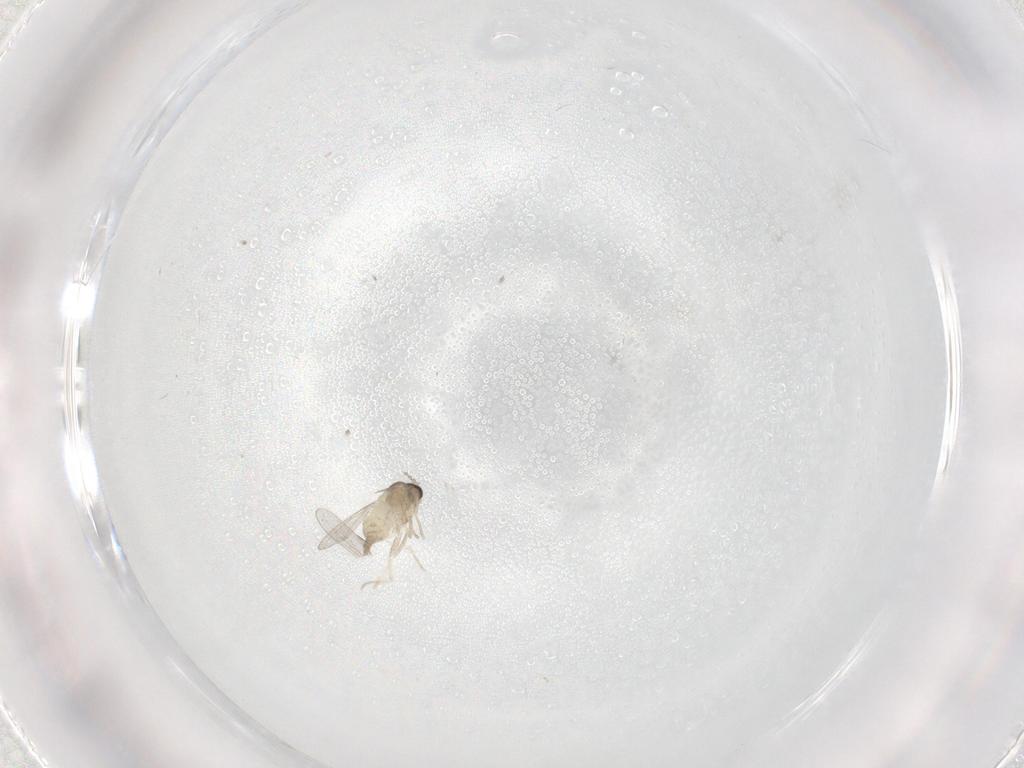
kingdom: Animalia
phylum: Arthropoda
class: Insecta
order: Diptera
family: Cecidomyiidae
